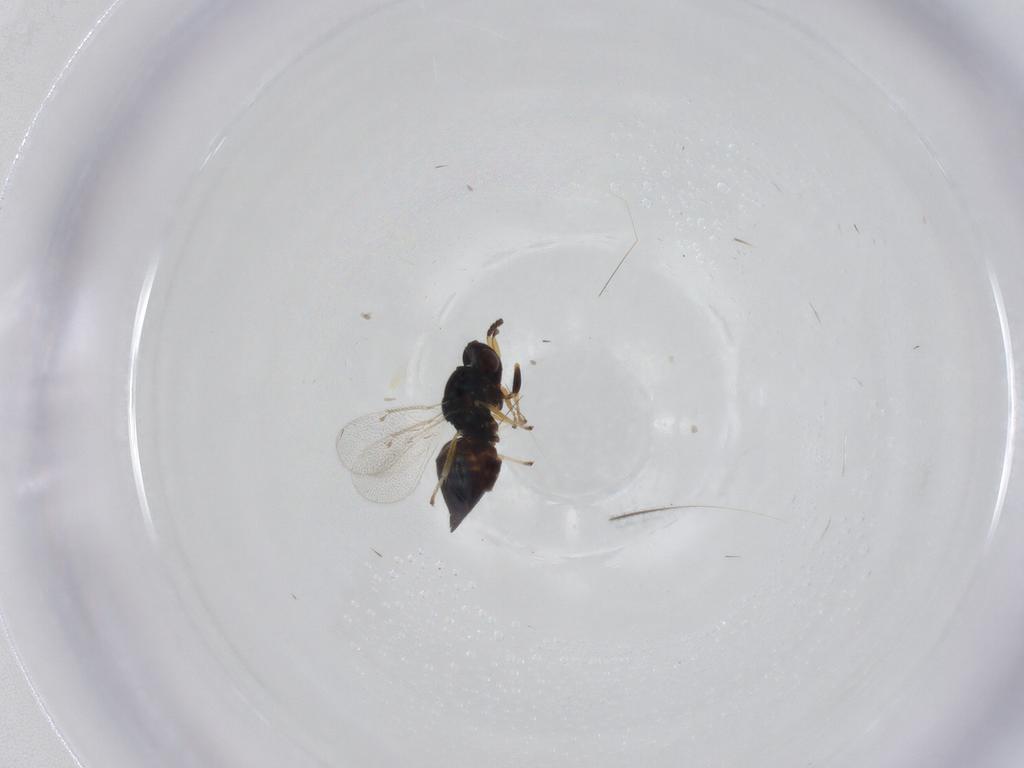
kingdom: Animalia
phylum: Arthropoda
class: Insecta
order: Hymenoptera
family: Eulophidae
